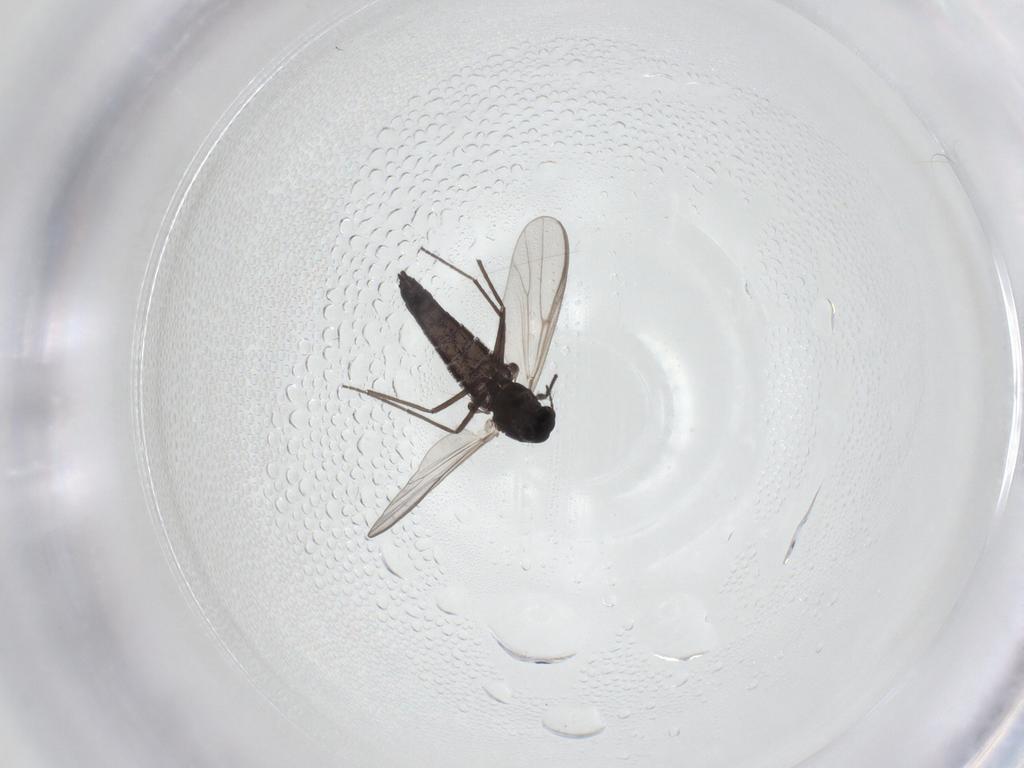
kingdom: Animalia
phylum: Arthropoda
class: Insecta
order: Diptera
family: Chironomidae
